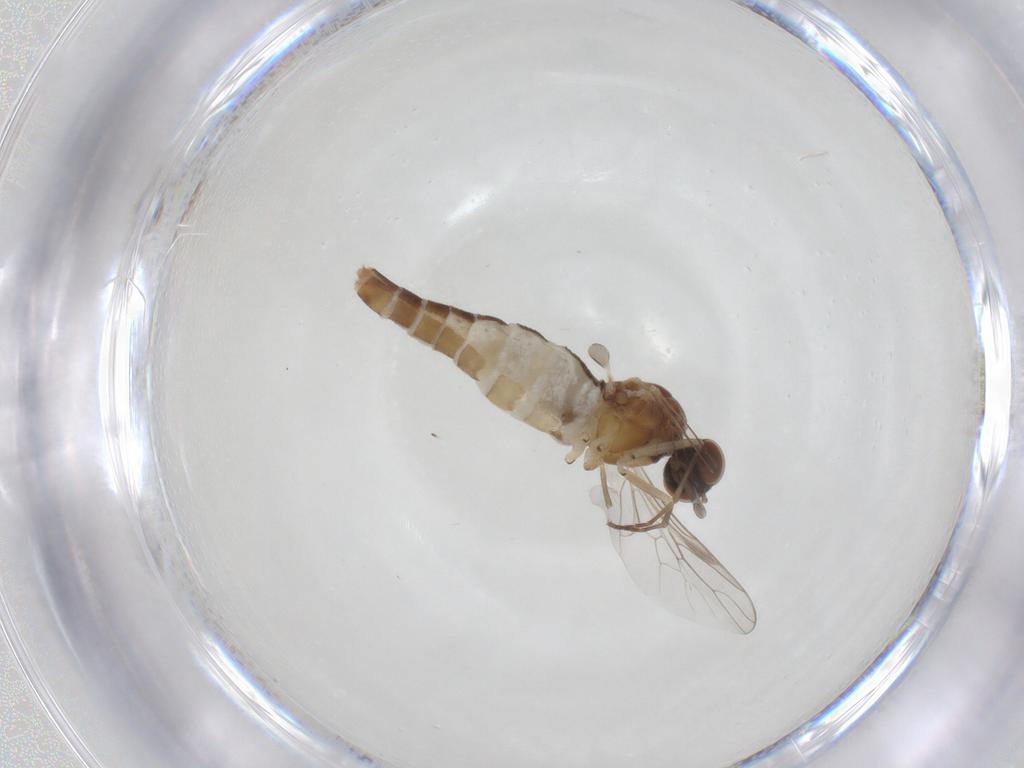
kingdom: Animalia
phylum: Arthropoda
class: Insecta
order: Diptera
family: Scenopinidae
